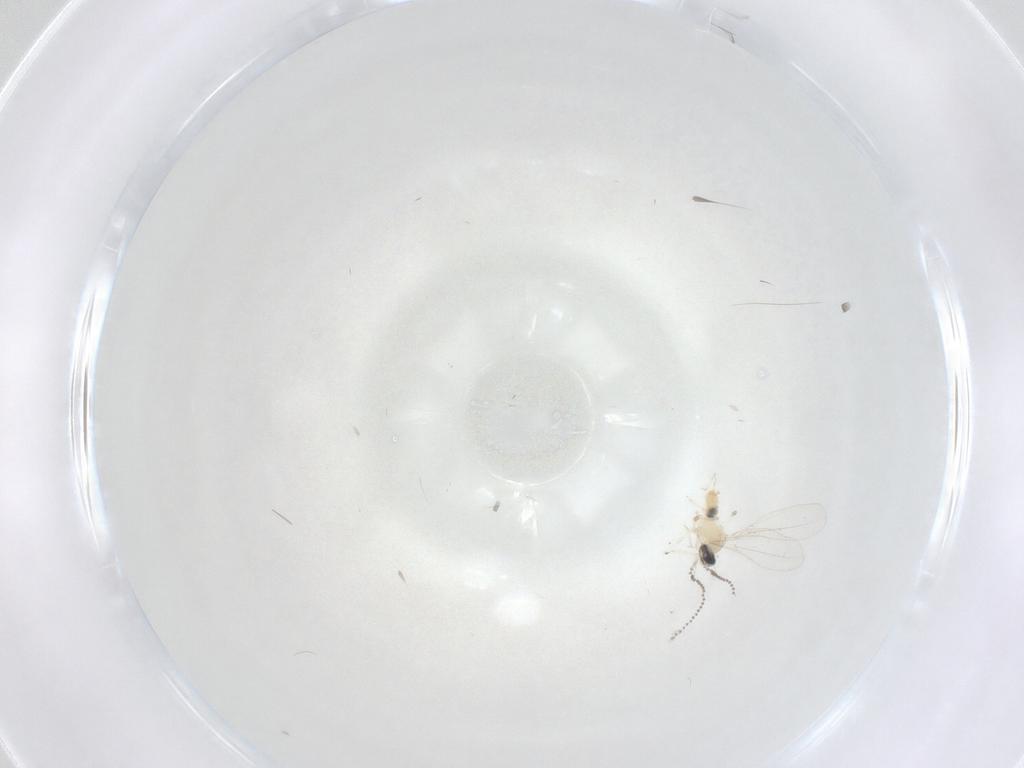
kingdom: Animalia
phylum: Arthropoda
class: Insecta
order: Diptera
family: Cecidomyiidae
